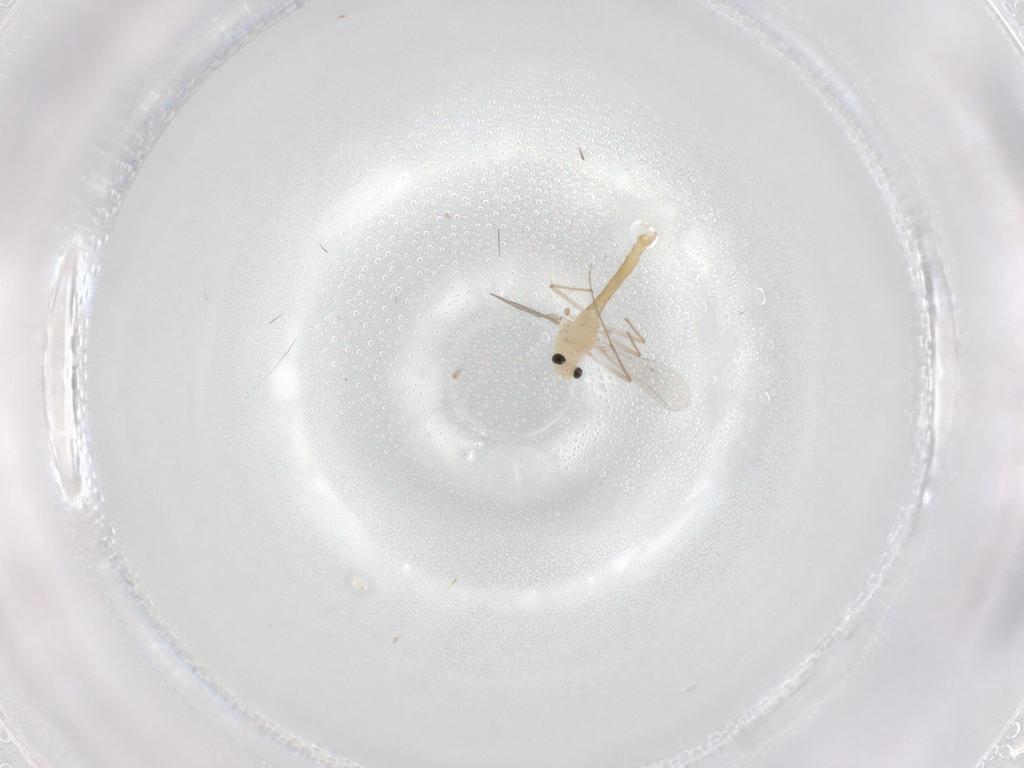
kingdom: Animalia
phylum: Arthropoda
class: Insecta
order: Diptera
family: Chironomidae
